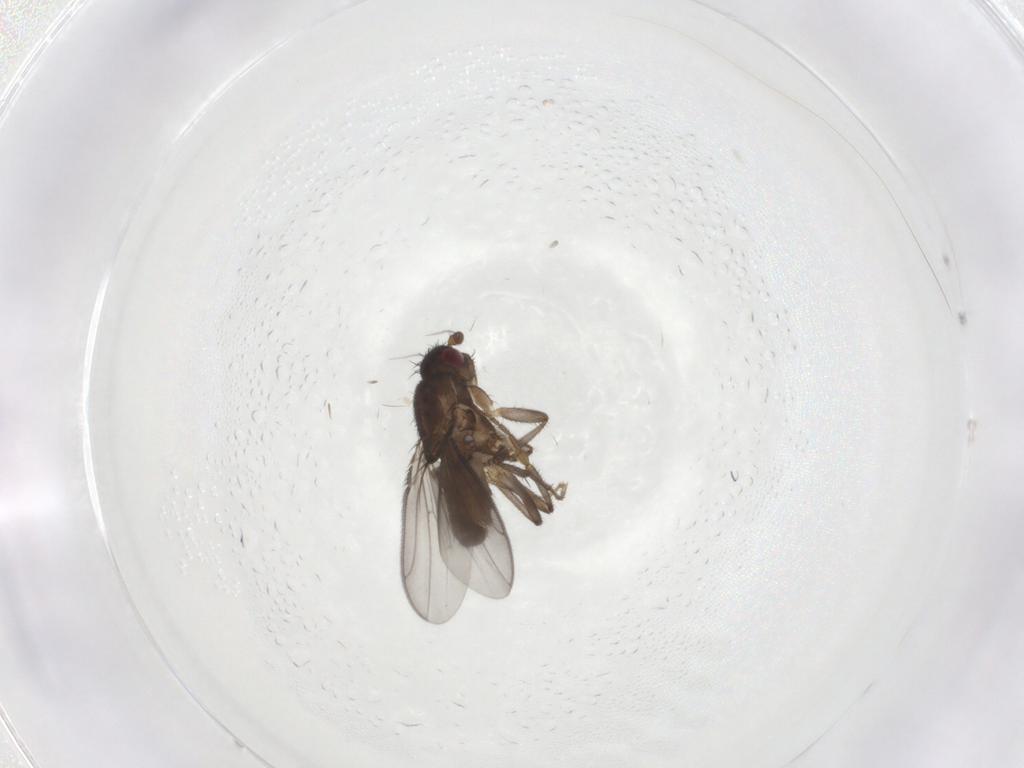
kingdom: Animalia
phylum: Arthropoda
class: Insecta
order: Diptera
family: Sphaeroceridae
